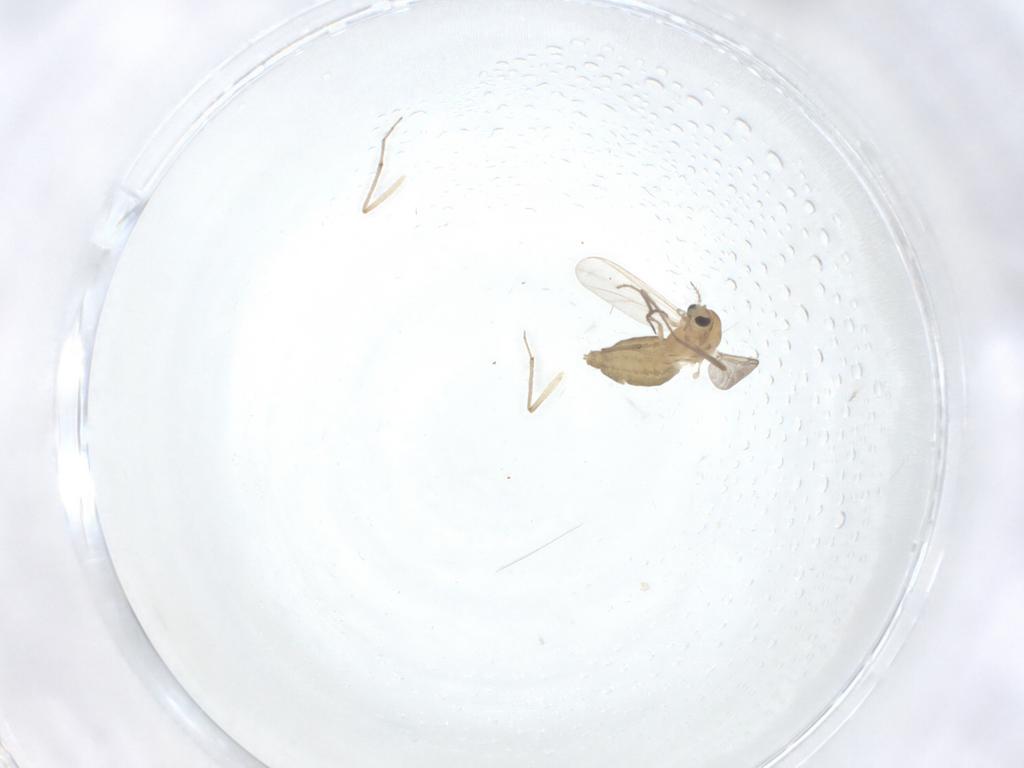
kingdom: Animalia
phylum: Arthropoda
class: Insecta
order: Diptera
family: Chironomidae
